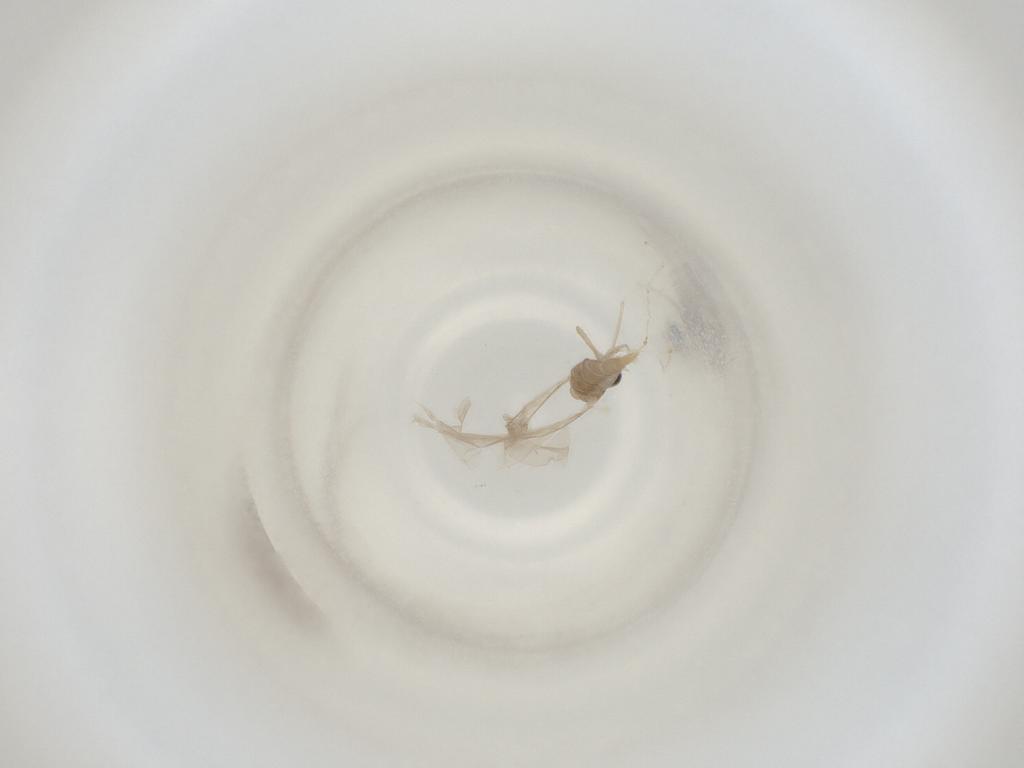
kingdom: Animalia
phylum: Arthropoda
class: Insecta
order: Diptera
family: Cecidomyiidae
